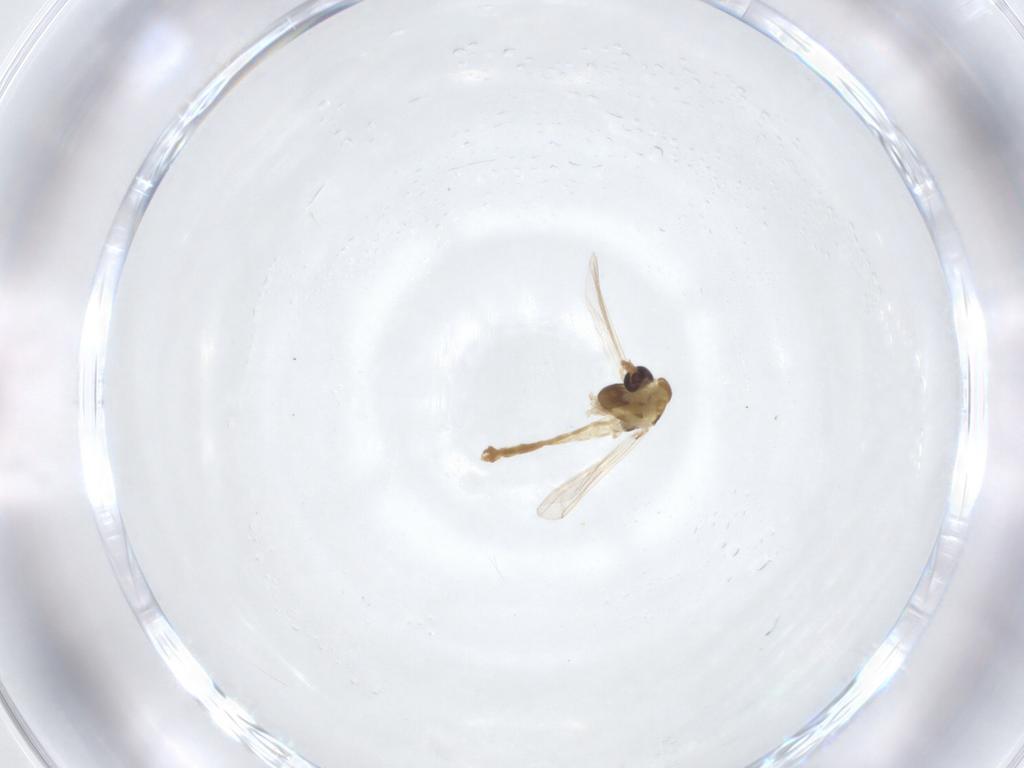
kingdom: Animalia
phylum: Arthropoda
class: Insecta
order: Diptera
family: Chironomidae
